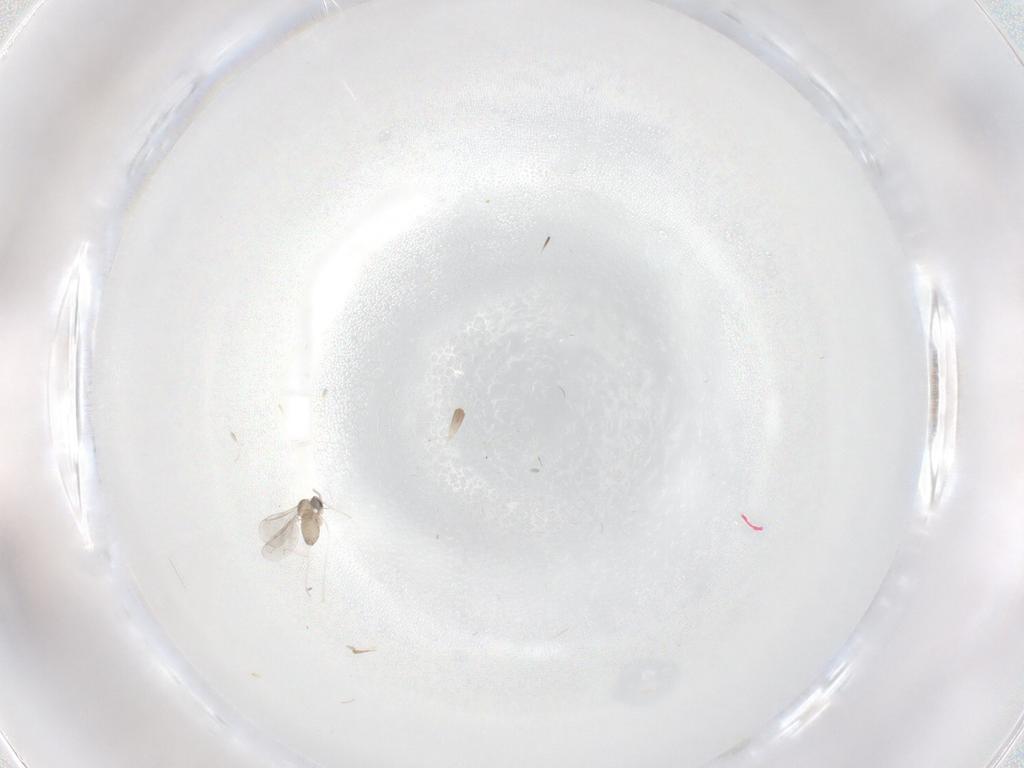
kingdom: Animalia
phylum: Arthropoda
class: Insecta
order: Diptera
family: Cecidomyiidae
